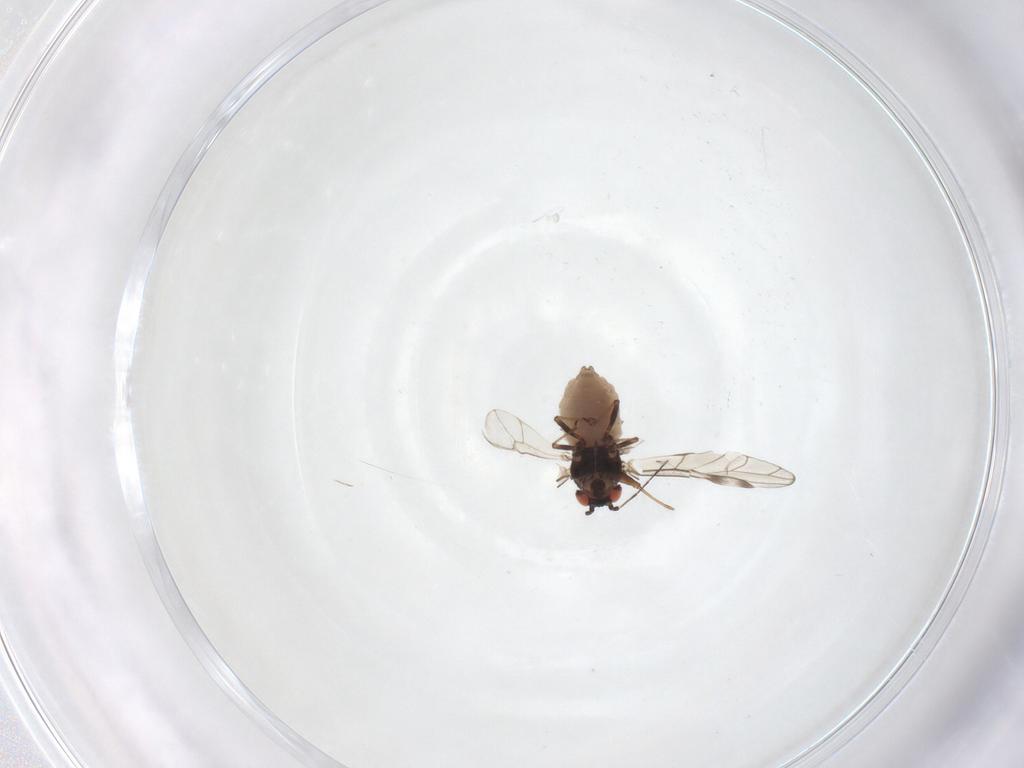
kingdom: Animalia
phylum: Arthropoda
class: Insecta
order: Hemiptera
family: Aphididae
